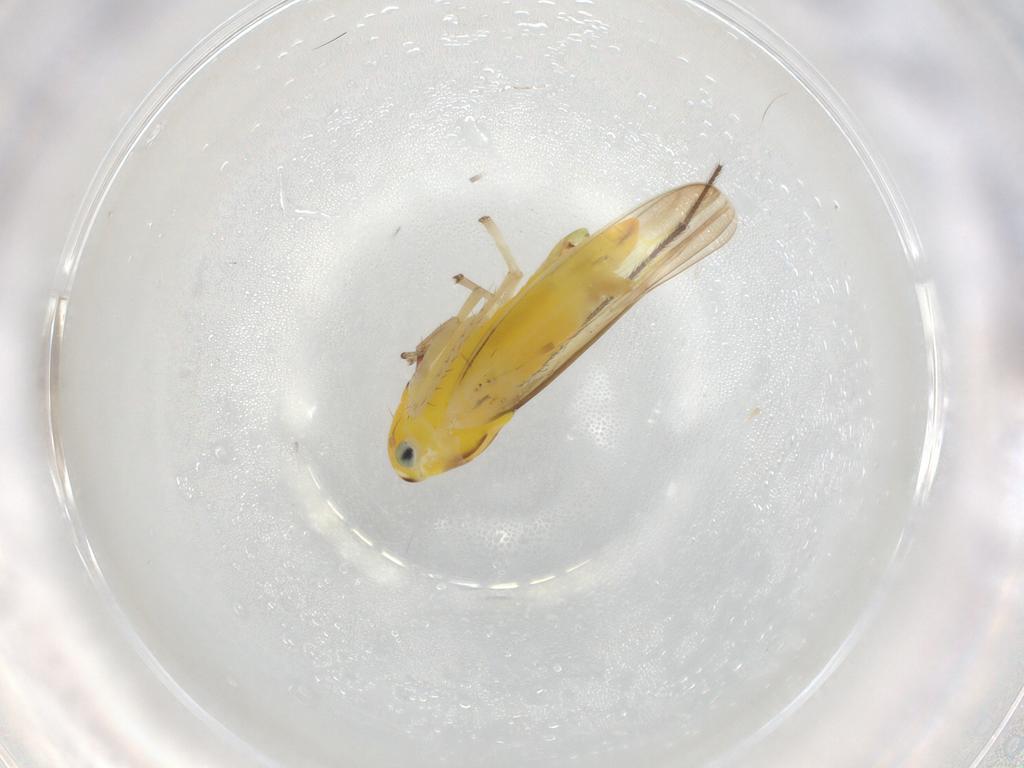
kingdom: Animalia
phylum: Arthropoda
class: Insecta
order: Hemiptera
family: Cicadellidae
